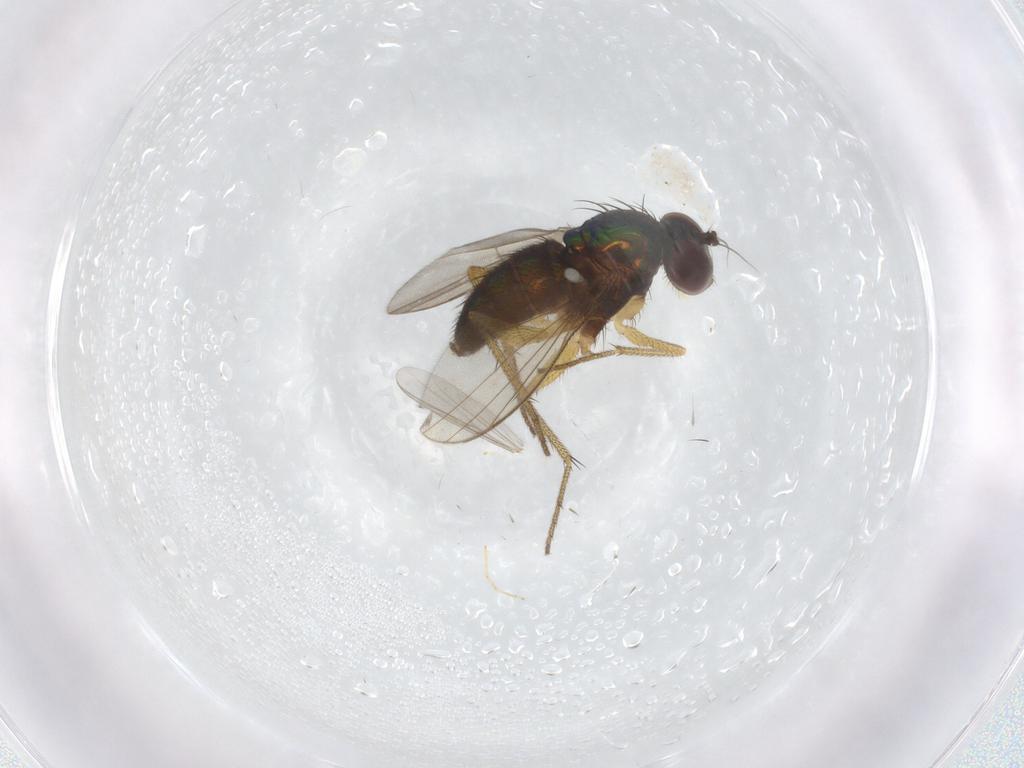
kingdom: Animalia
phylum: Arthropoda
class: Insecta
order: Diptera
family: Chironomidae
